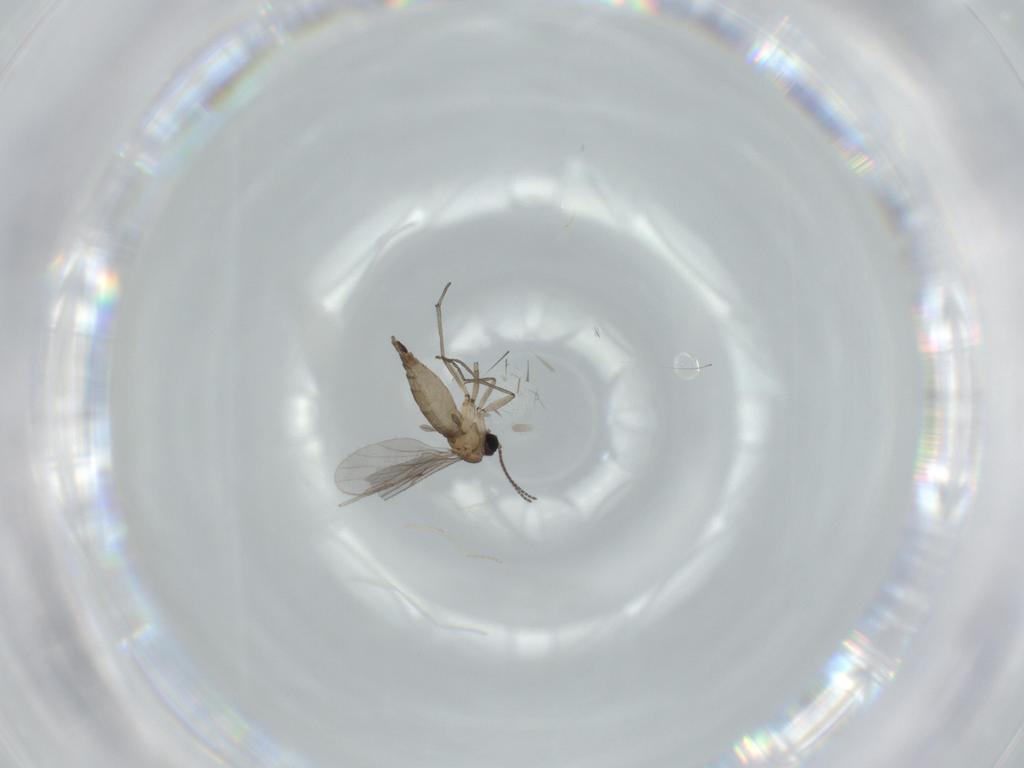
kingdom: Animalia
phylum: Arthropoda
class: Insecta
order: Diptera
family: Sciaridae
